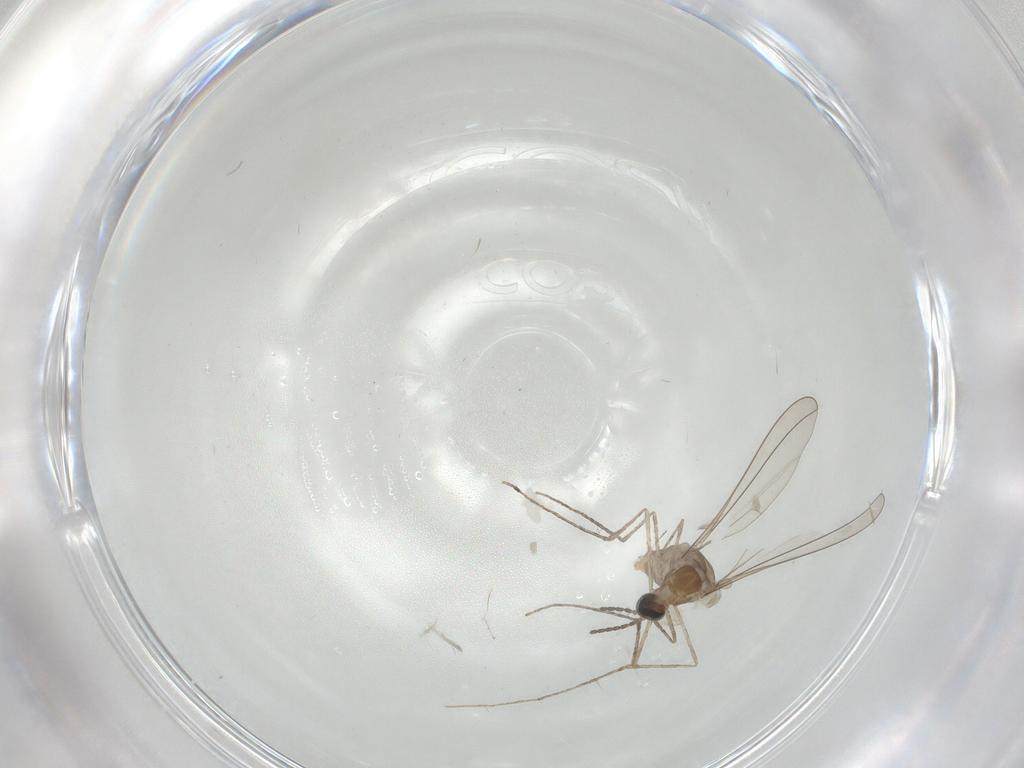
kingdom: Animalia
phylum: Arthropoda
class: Insecta
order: Diptera
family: Cecidomyiidae
